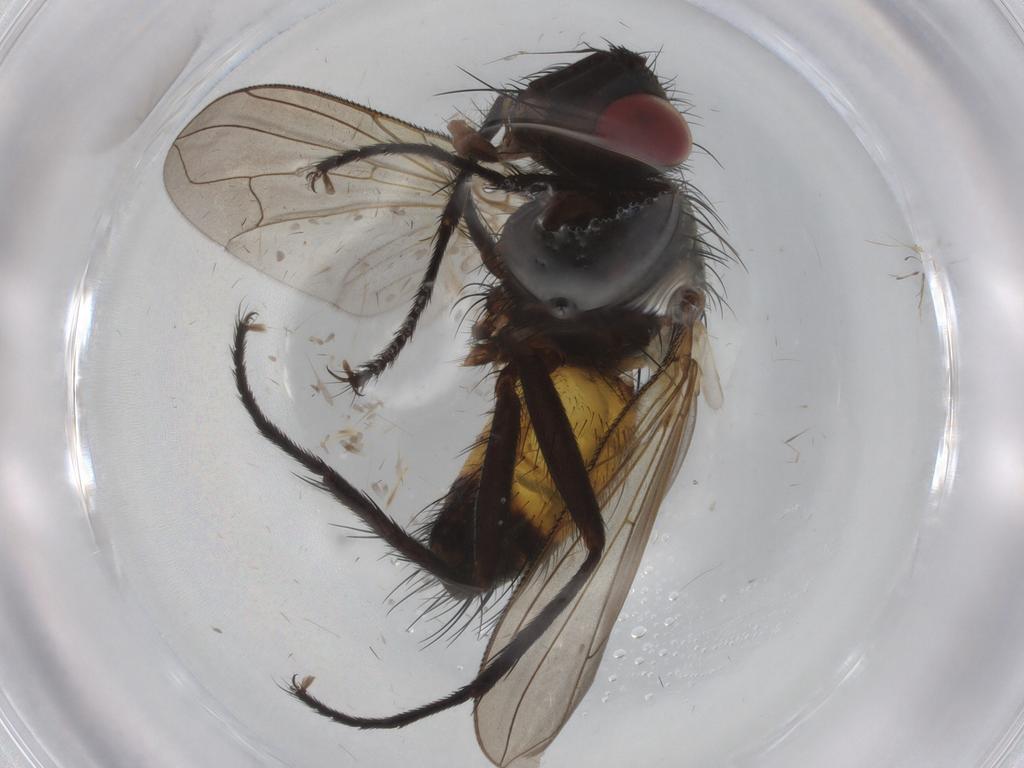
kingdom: Animalia
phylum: Arthropoda
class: Insecta
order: Diptera
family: Tachinidae
